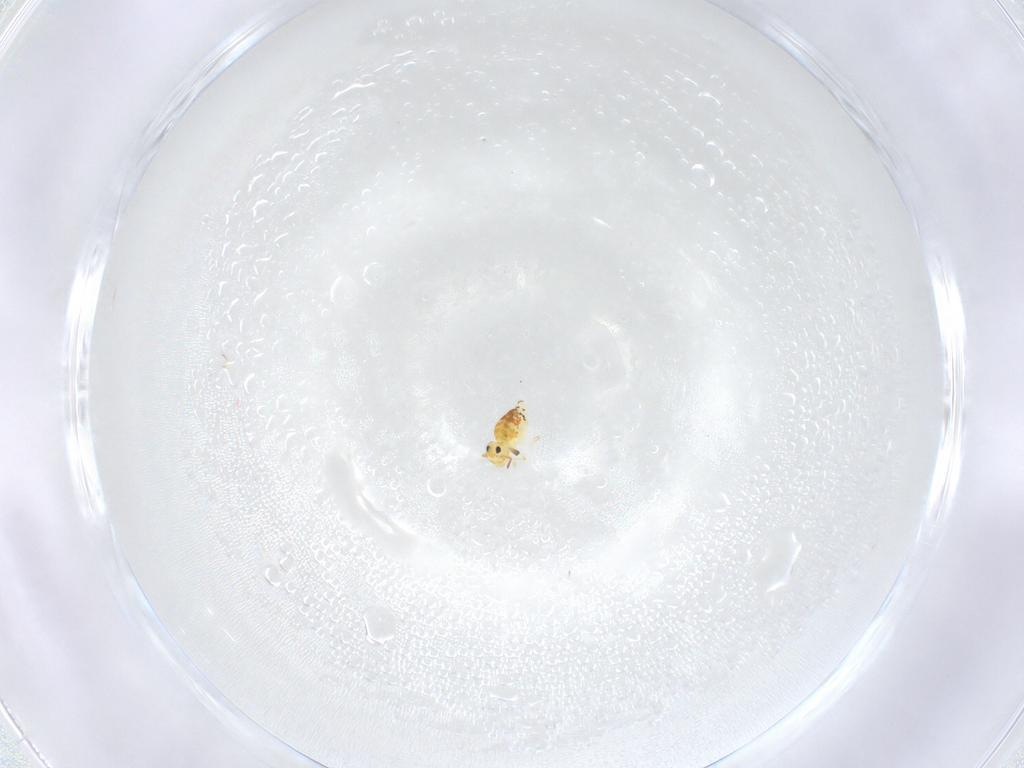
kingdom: Animalia
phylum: Arthropoda
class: Collembola
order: Symphypleona
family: Bourletiellidae
